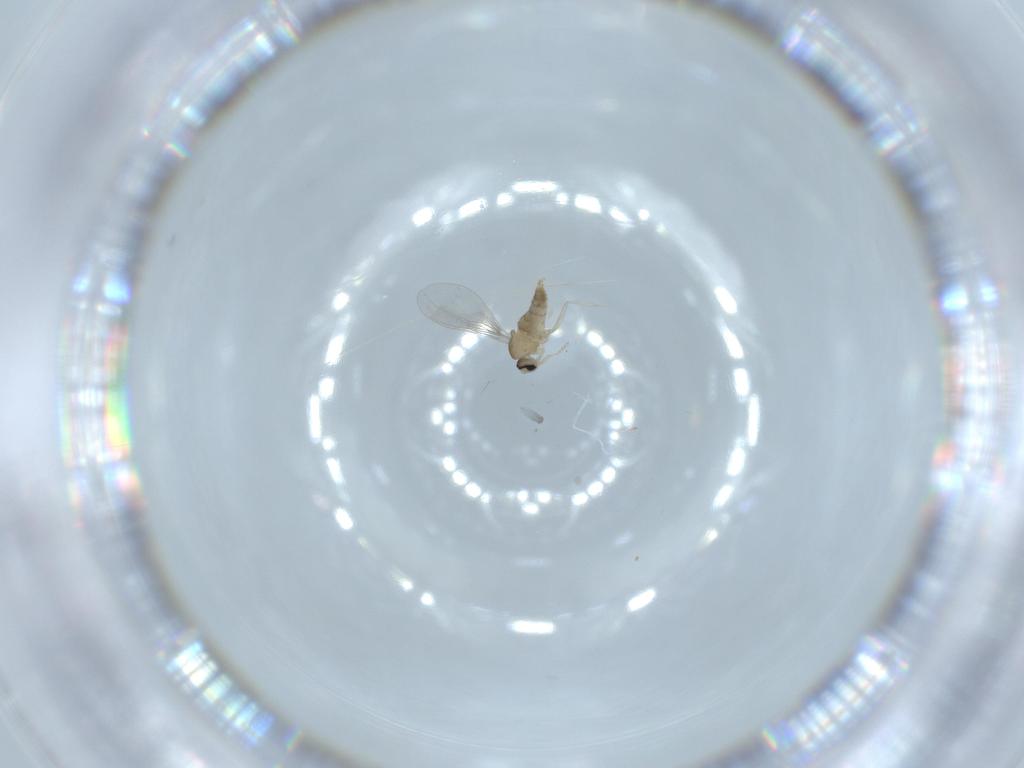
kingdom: Animalia
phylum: Arthropoda
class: Insecta
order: Diptera
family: Cecidomyiidae
